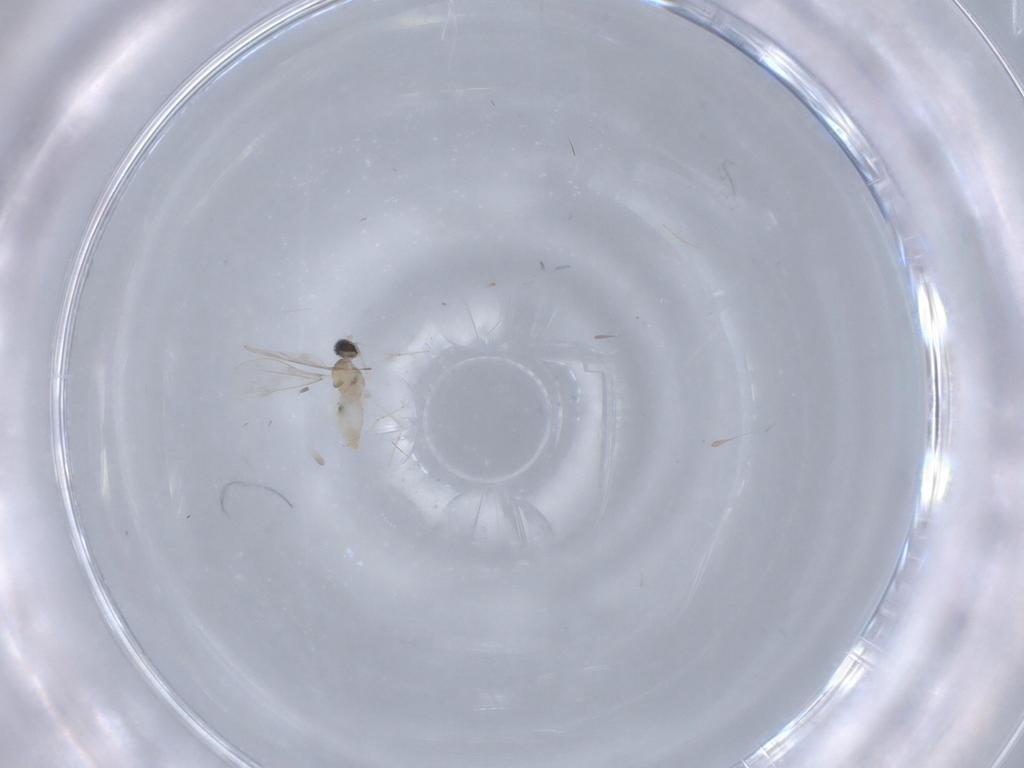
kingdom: Animalia
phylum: Arthropoda
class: Insecta
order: Diptera
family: Cecidomyiidae
